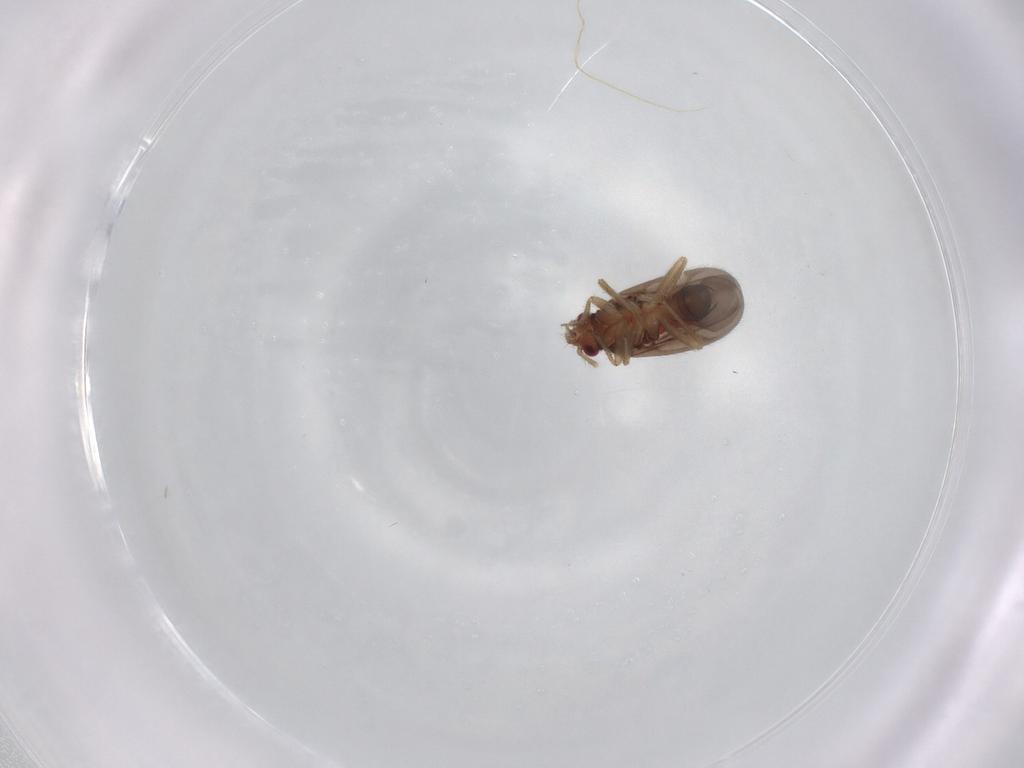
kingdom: Animalia
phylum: Arthropoda
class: Insecta
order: Hemiptera
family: Ceratocombidae
